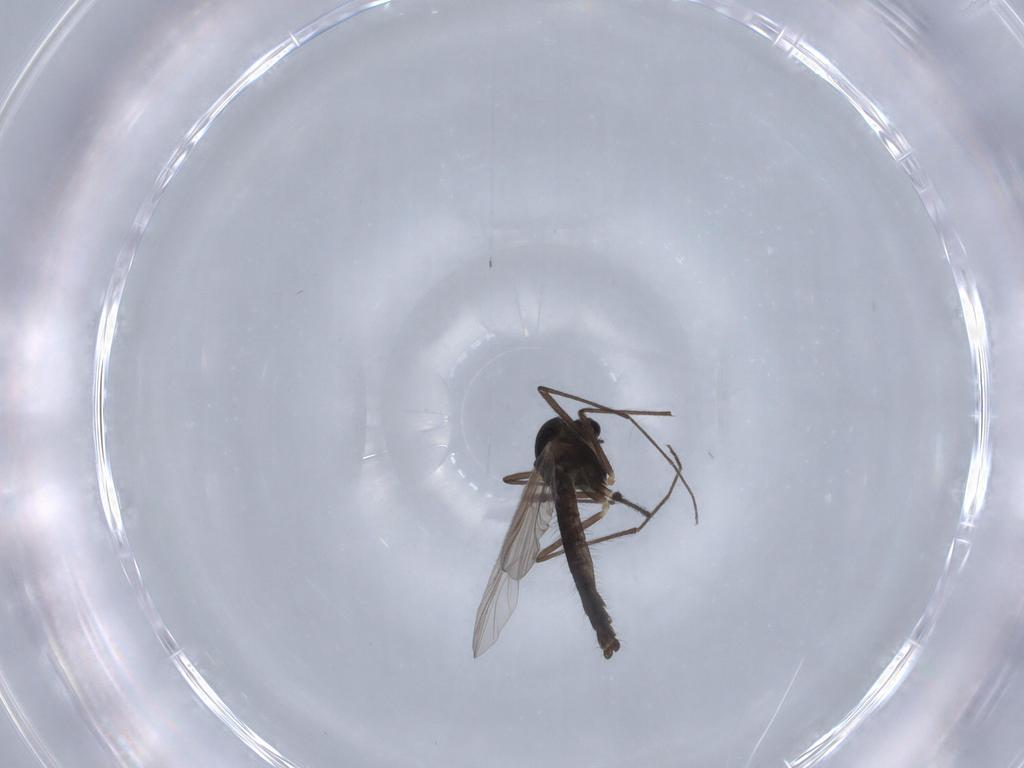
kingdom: Animalia
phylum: Arthropoda
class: Insecta
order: Diptera
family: Chironomidae
